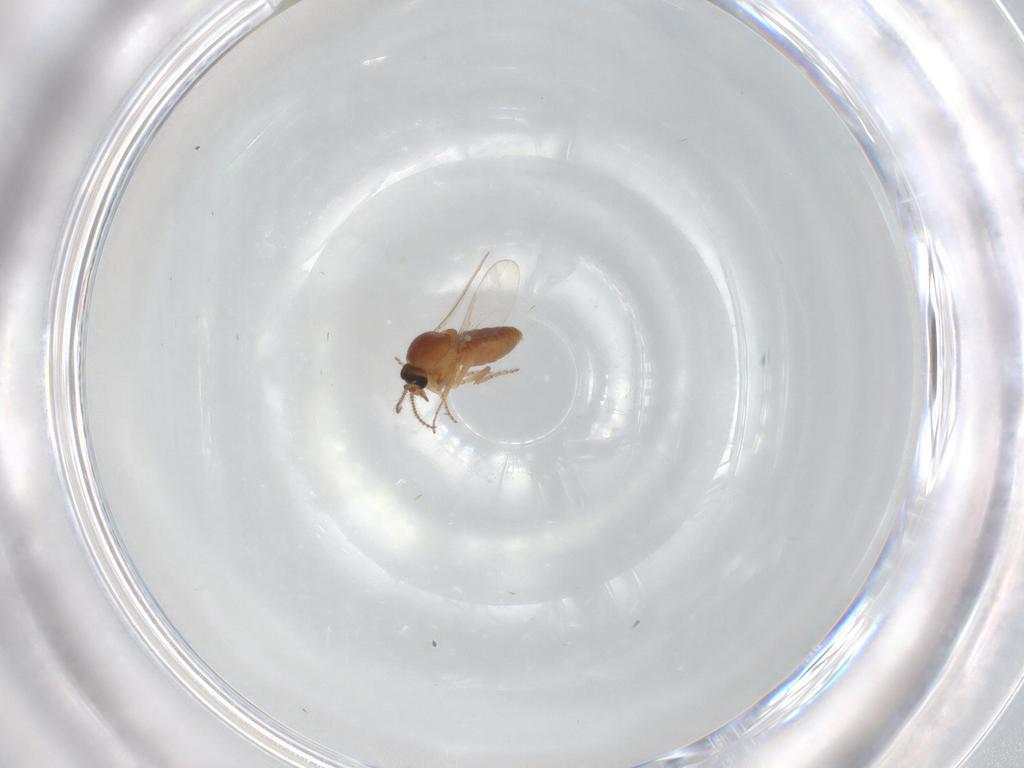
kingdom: Animalia
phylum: Arthropoda
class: Insecta
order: Diptera
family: Ceratopogonidae
